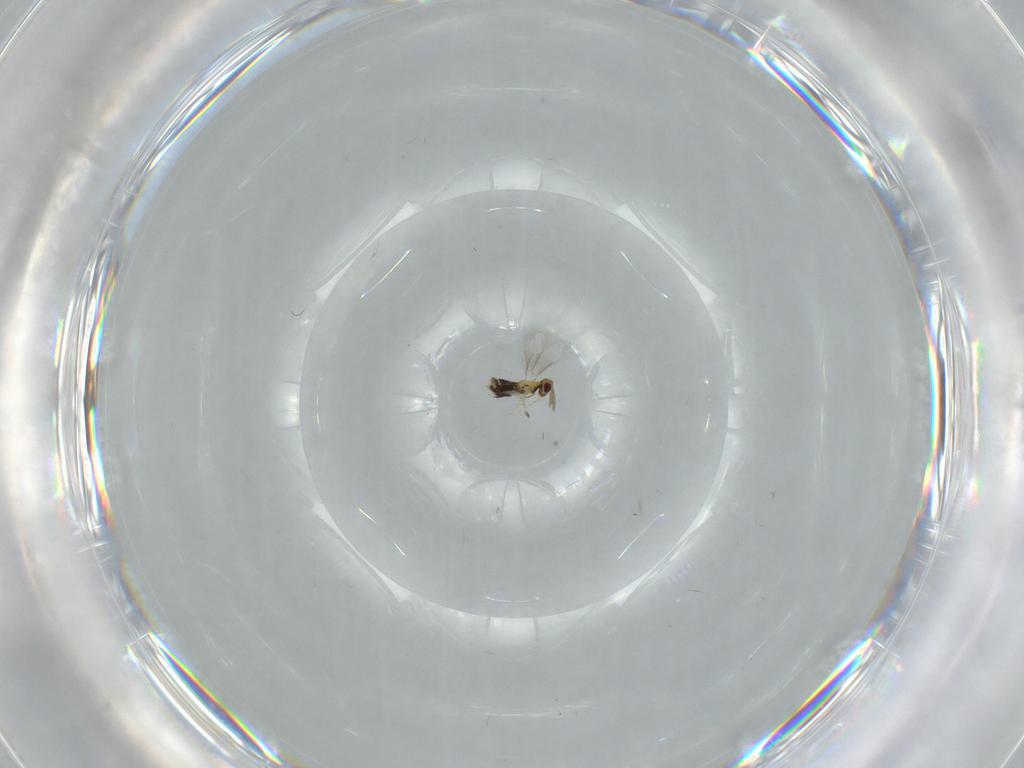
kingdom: Animalia
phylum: Arthropoda
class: Insecta
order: Hymenoptera
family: Aphelinidae
